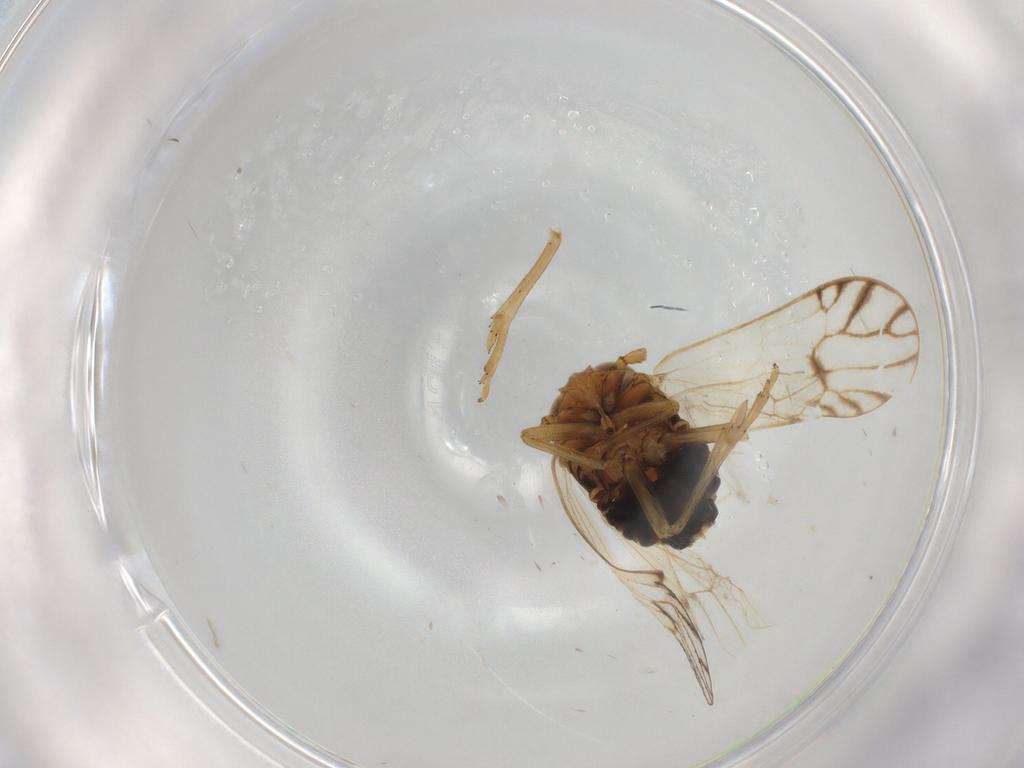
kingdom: Animalia
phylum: Arthropoda
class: Insecta
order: Hemiptera
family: Delphacidae
